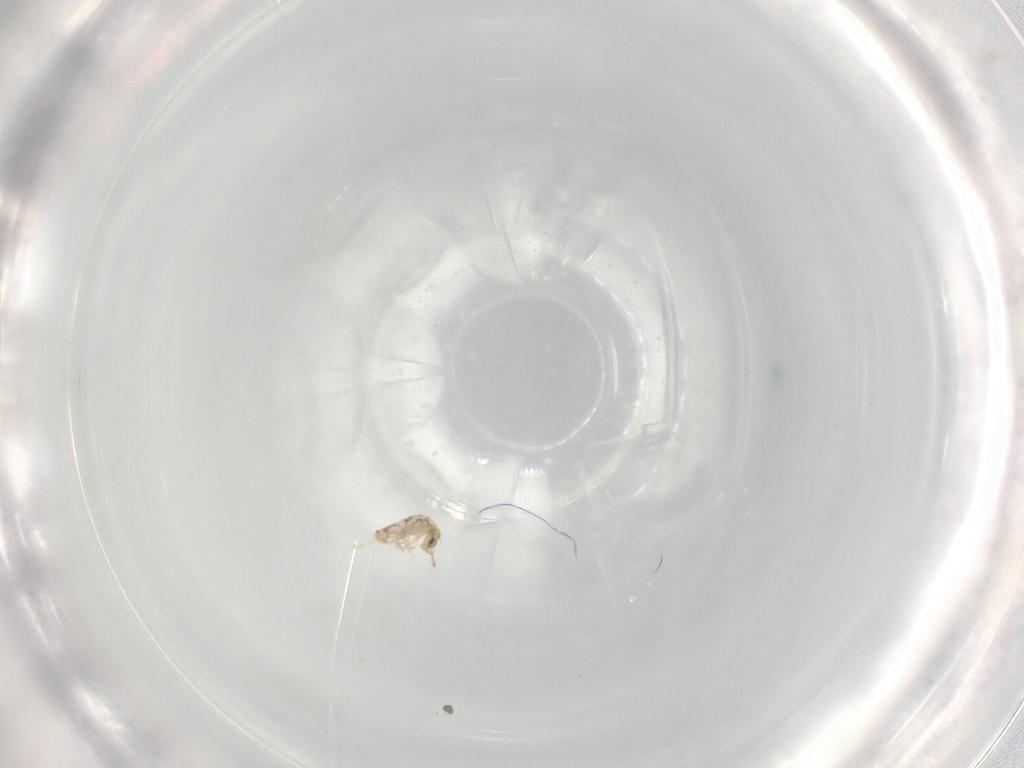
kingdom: Animalia
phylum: Arthropoda
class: Collembola
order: Entomobryomorpha
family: Entomobryidae
